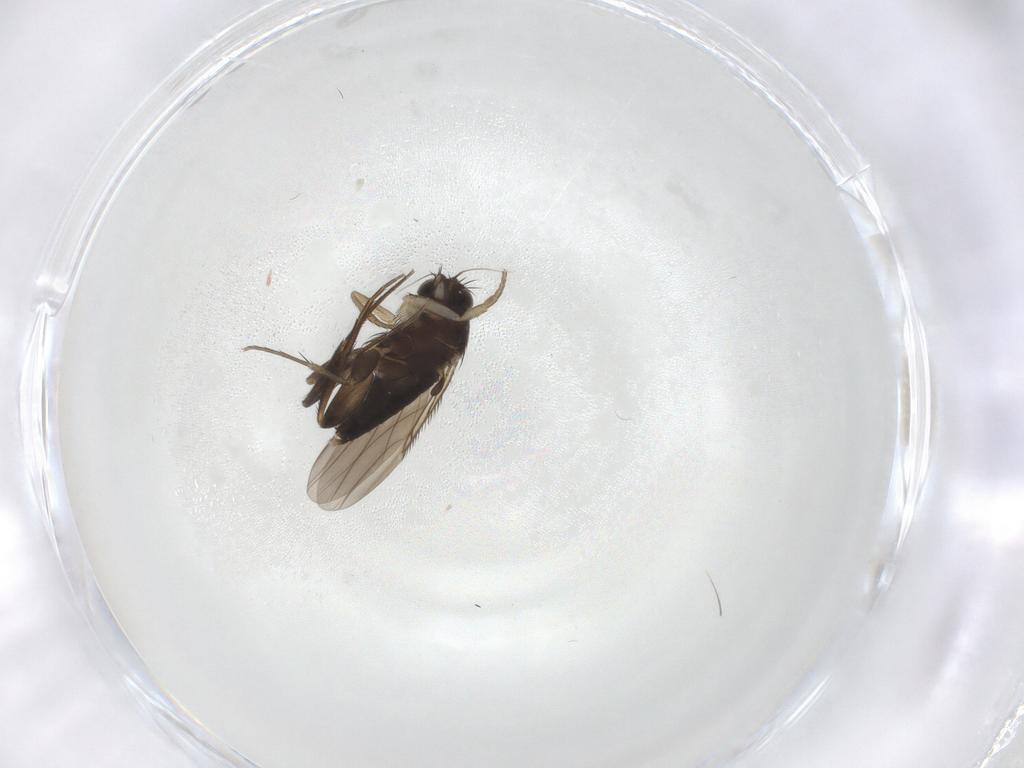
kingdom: Animalia
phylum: Arthropoda
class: Insecta
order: Diptera
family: Phoridae
